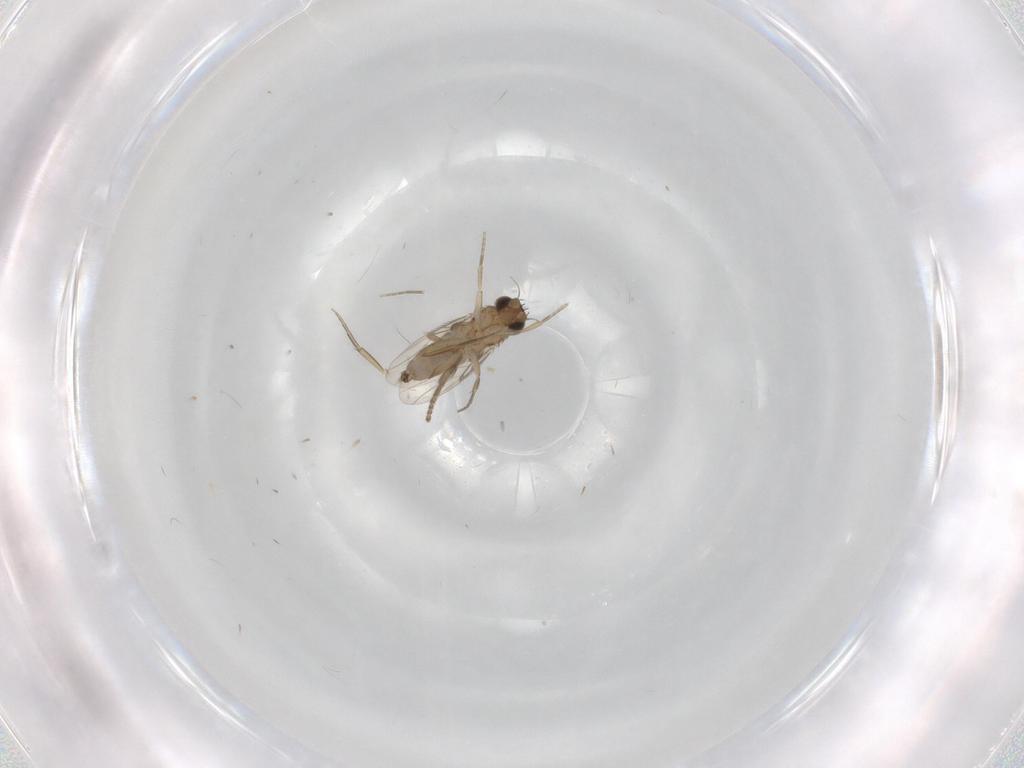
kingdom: Animalia
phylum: Arthropoda
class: Insecta
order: Diptera
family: Phoridae
